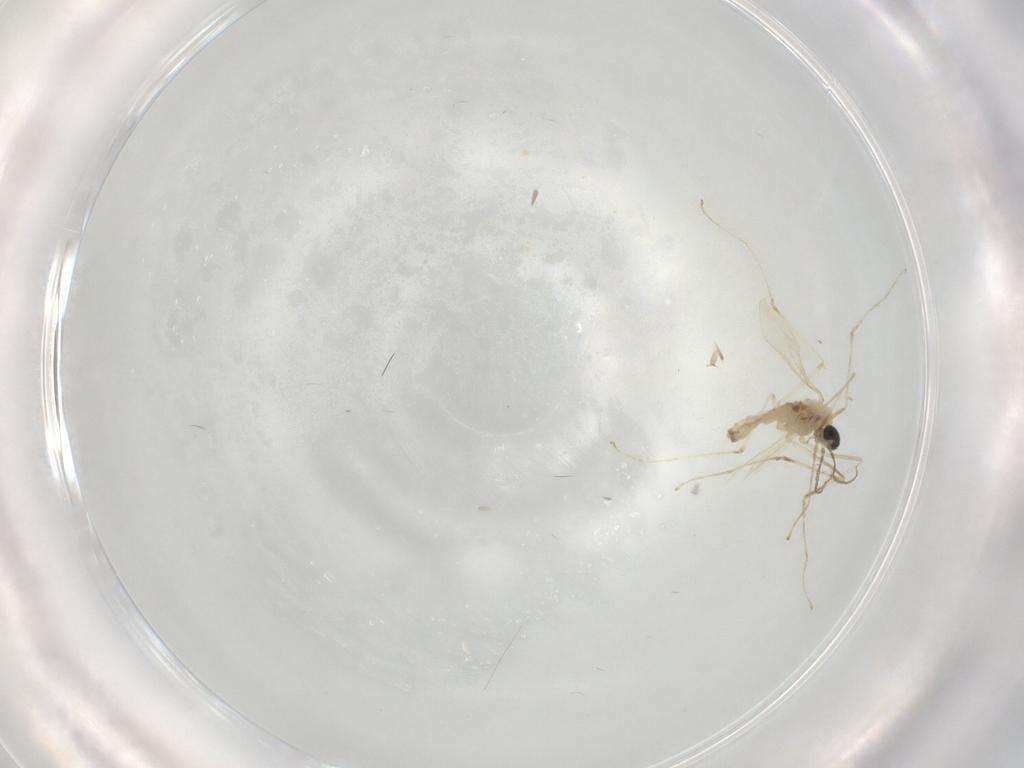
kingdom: Animalia
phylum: Arthropoda
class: Insecta
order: Diptera
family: Cecidomyiidae
